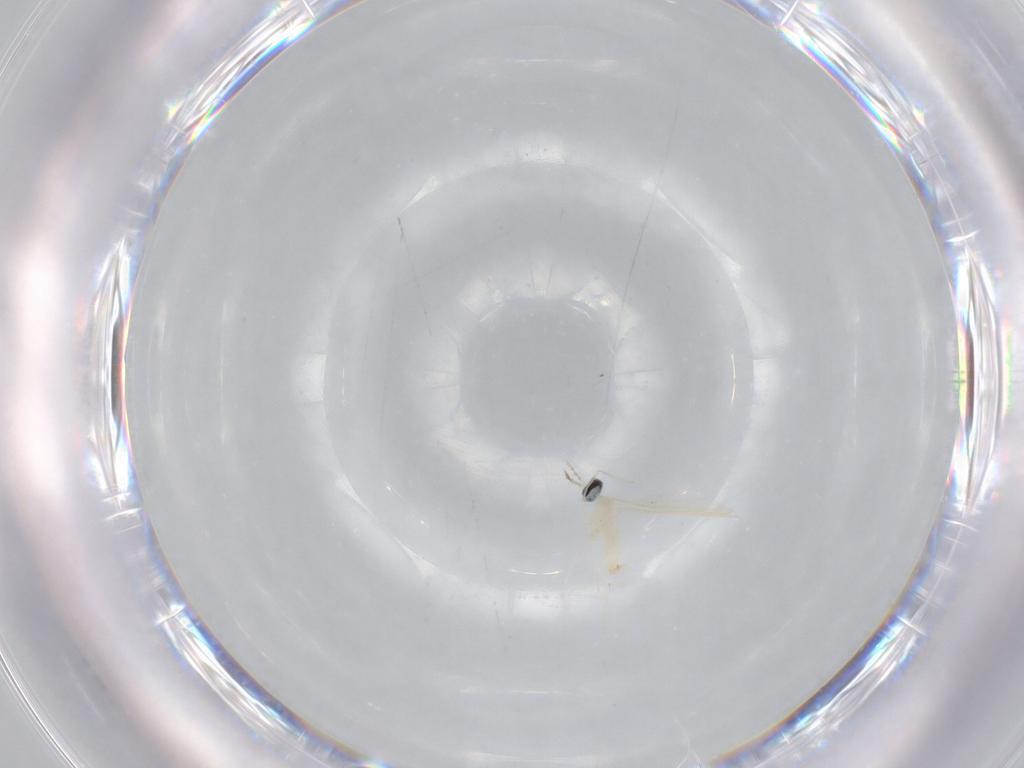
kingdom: Animalia
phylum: Arthropoda
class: Insecta
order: Diptera
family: Cecidomyiidae
